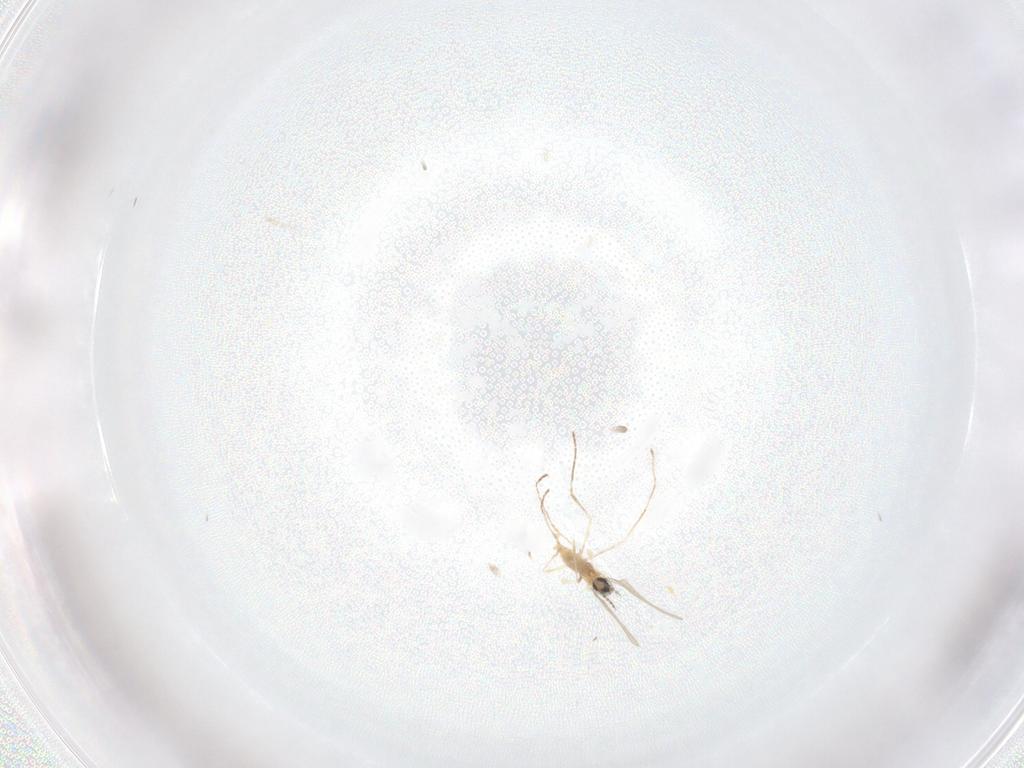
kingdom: Animalia
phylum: Arthropoda
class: Insecta
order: Diptera
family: Cecidomyiidae
